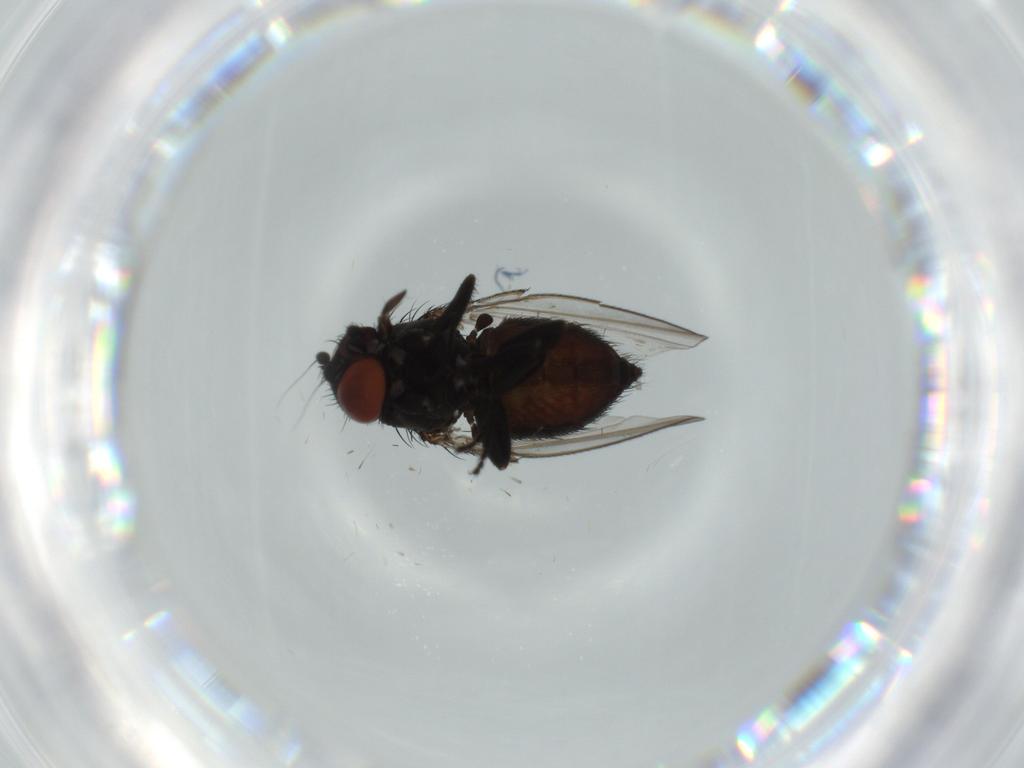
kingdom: Animalia
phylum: Arthropoda
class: Insecta
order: Diptera
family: Milichiidae
